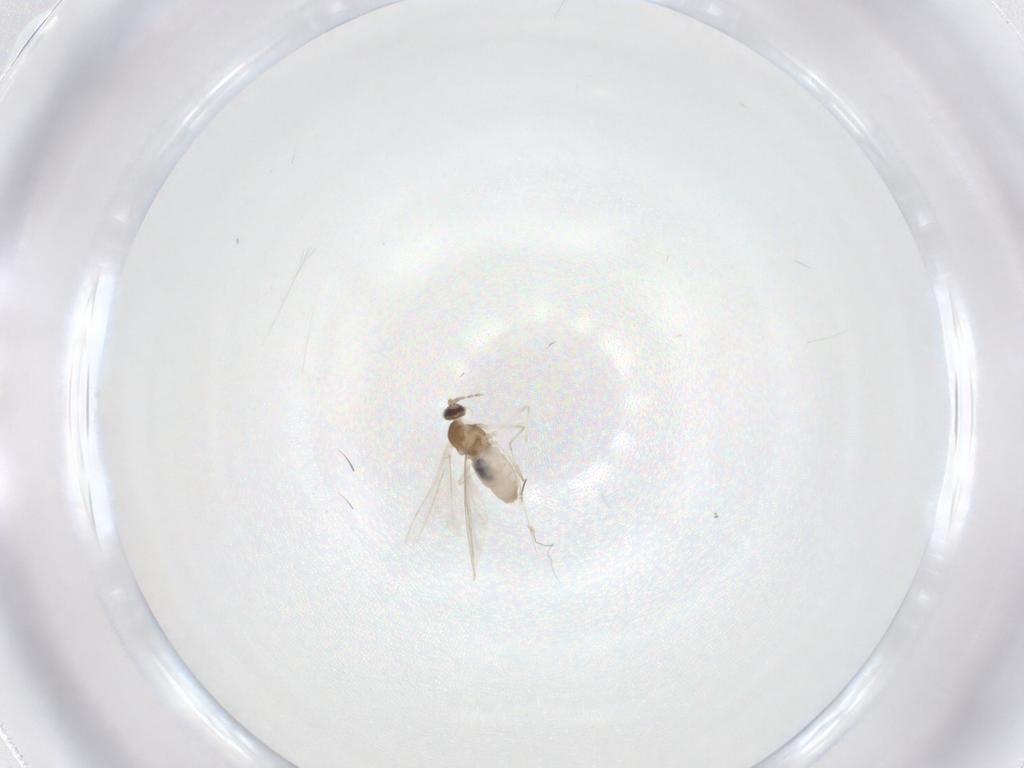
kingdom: Animalia
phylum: Arthropoda
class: Insecta
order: Diptera
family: Cecidomyiidae
